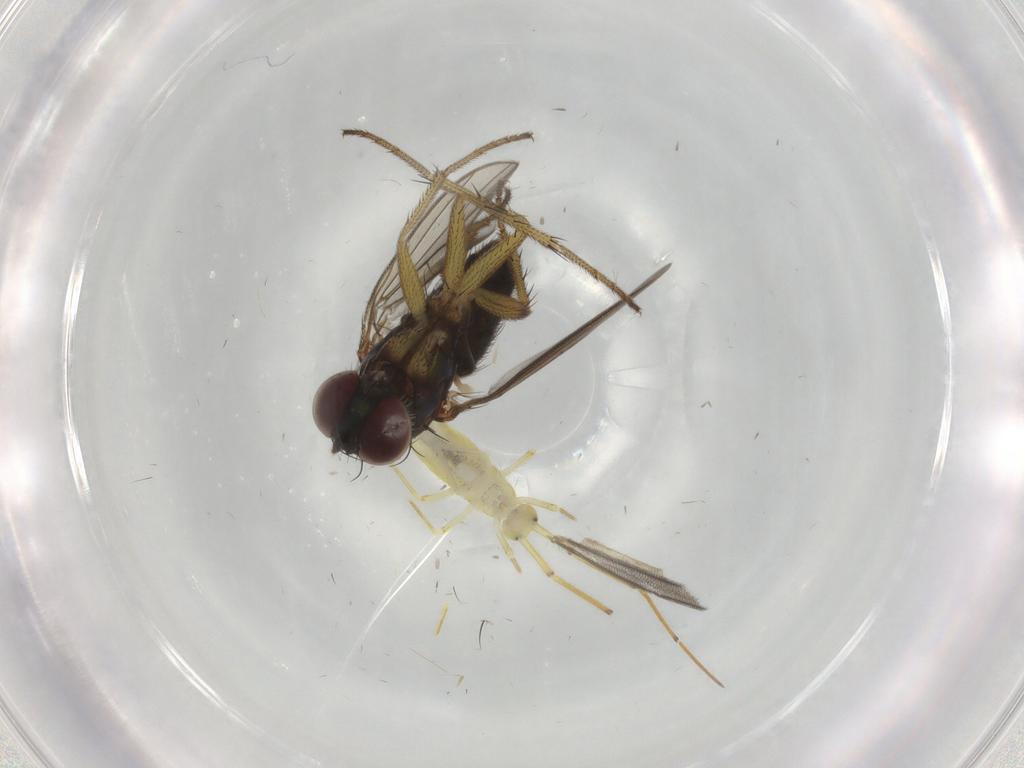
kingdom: Animalia
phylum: Arthropoda
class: Insecta
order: Diptera
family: Dolichopodidae
